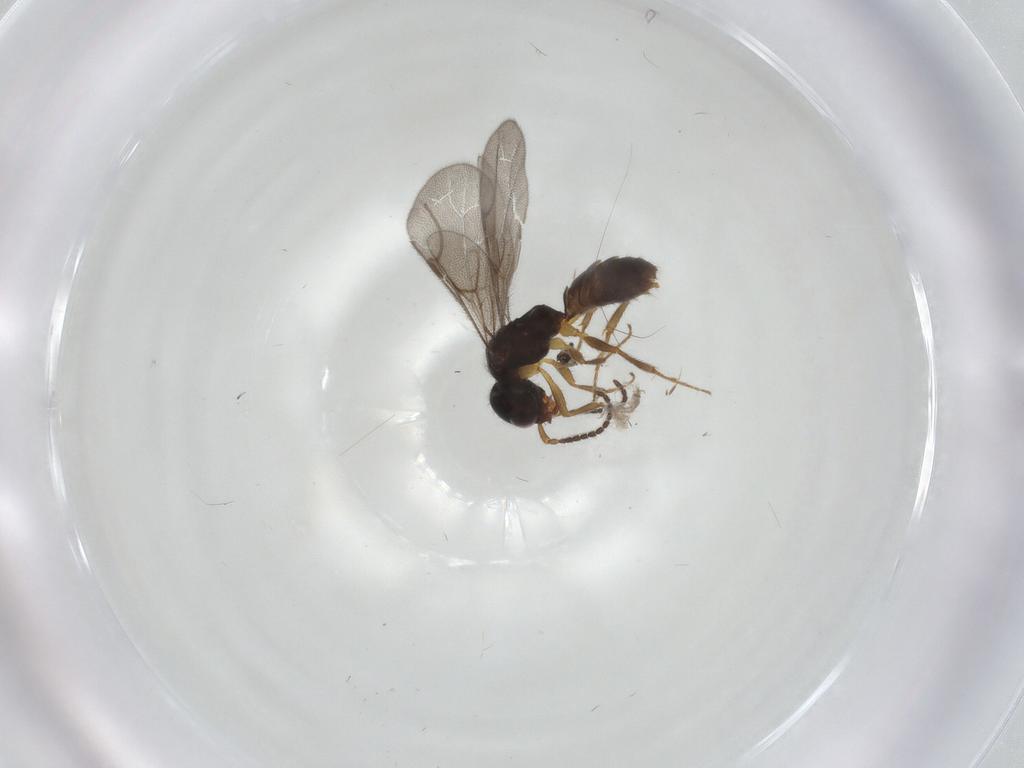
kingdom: Animalia
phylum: Arthropoda
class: Insecta
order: Hymenoptera
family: Bethylidae
